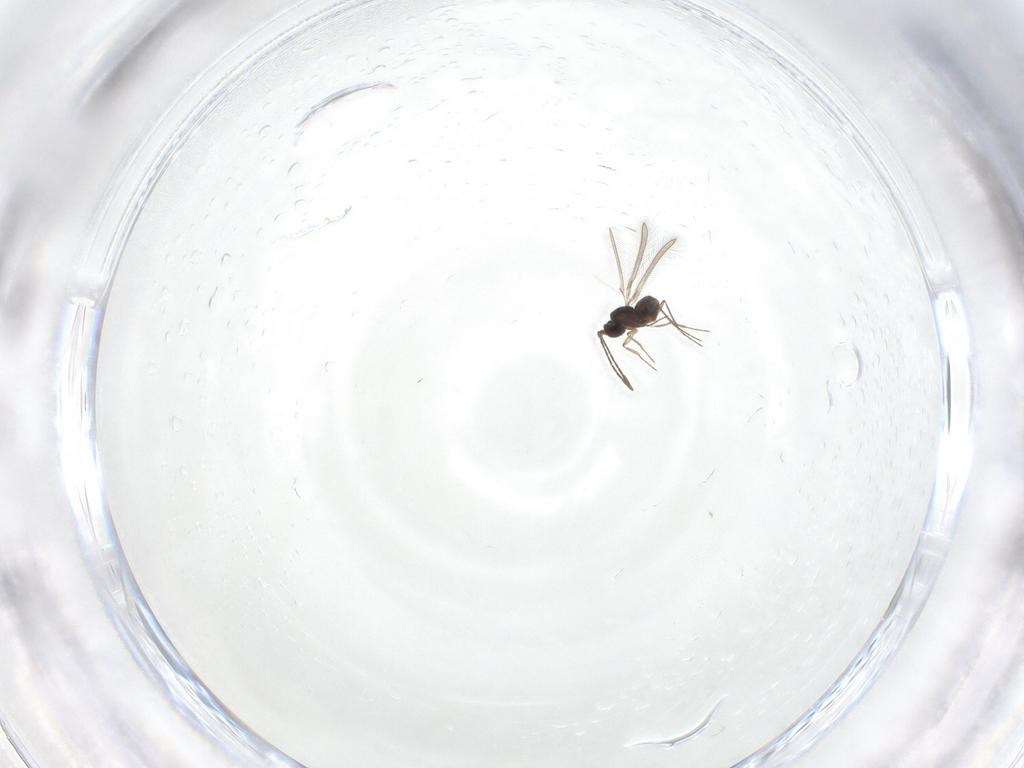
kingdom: Animalia
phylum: Arthropoda
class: Insecta
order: Hymenoptera
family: Mymaridae
